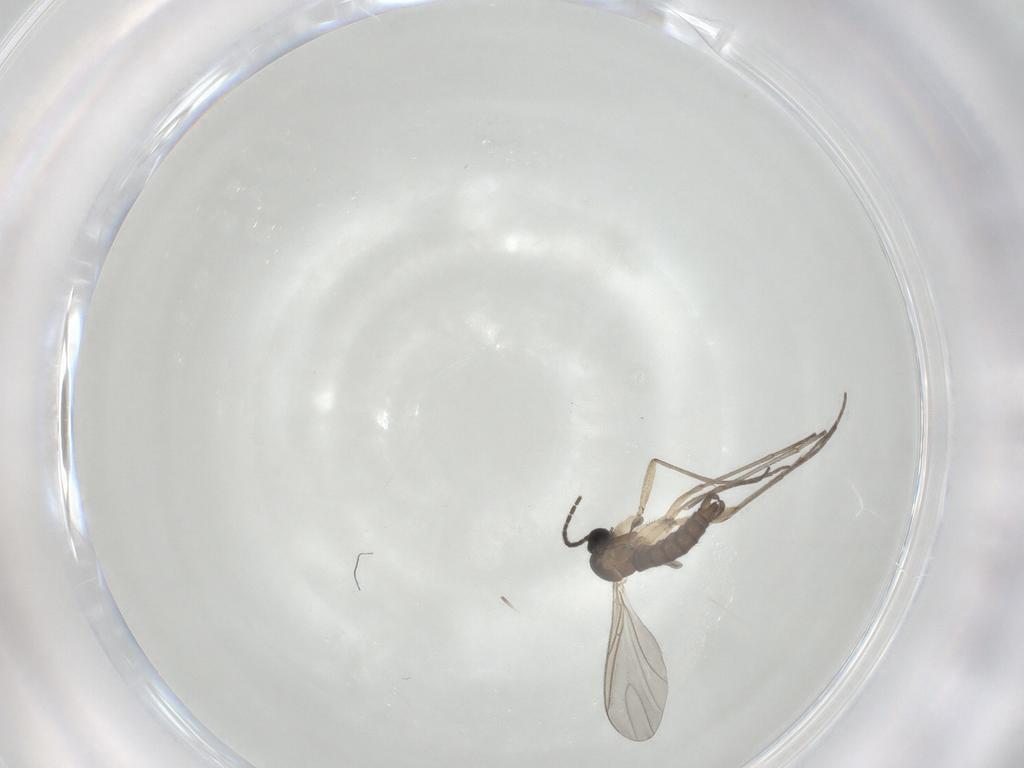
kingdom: Animalia
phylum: Arthropoda
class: Insecta
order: Diptera
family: Sciaridae
